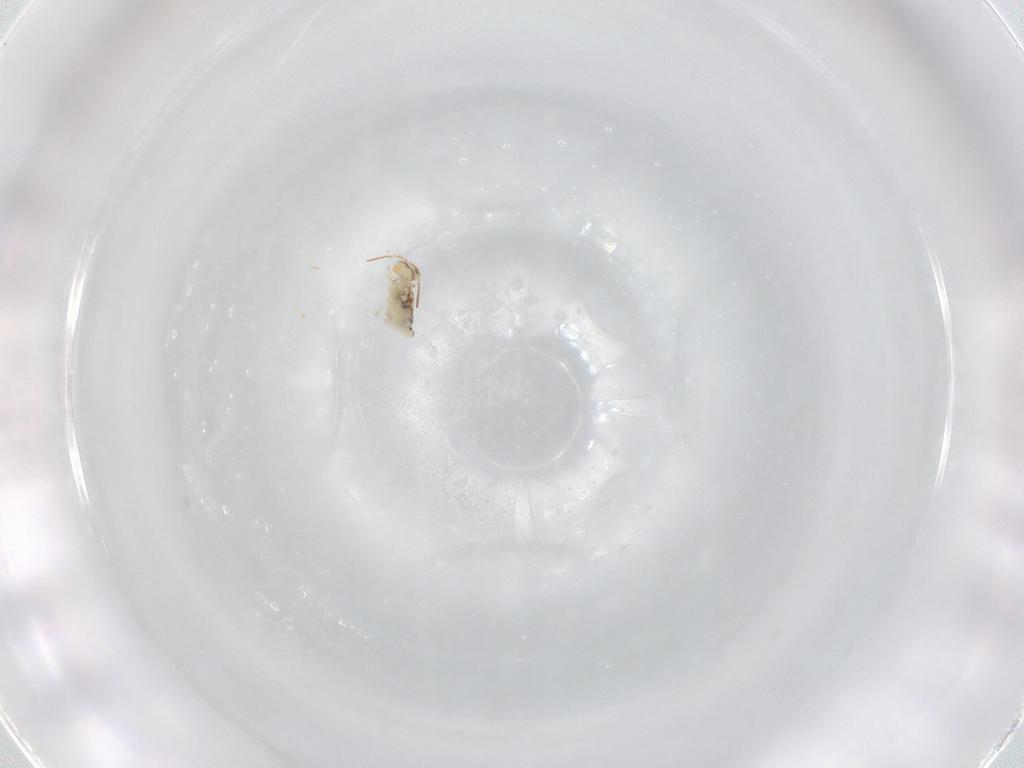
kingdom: Animalia
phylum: Arthropoda
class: Collembola
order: Symphypleona
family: Bourletiellidae
